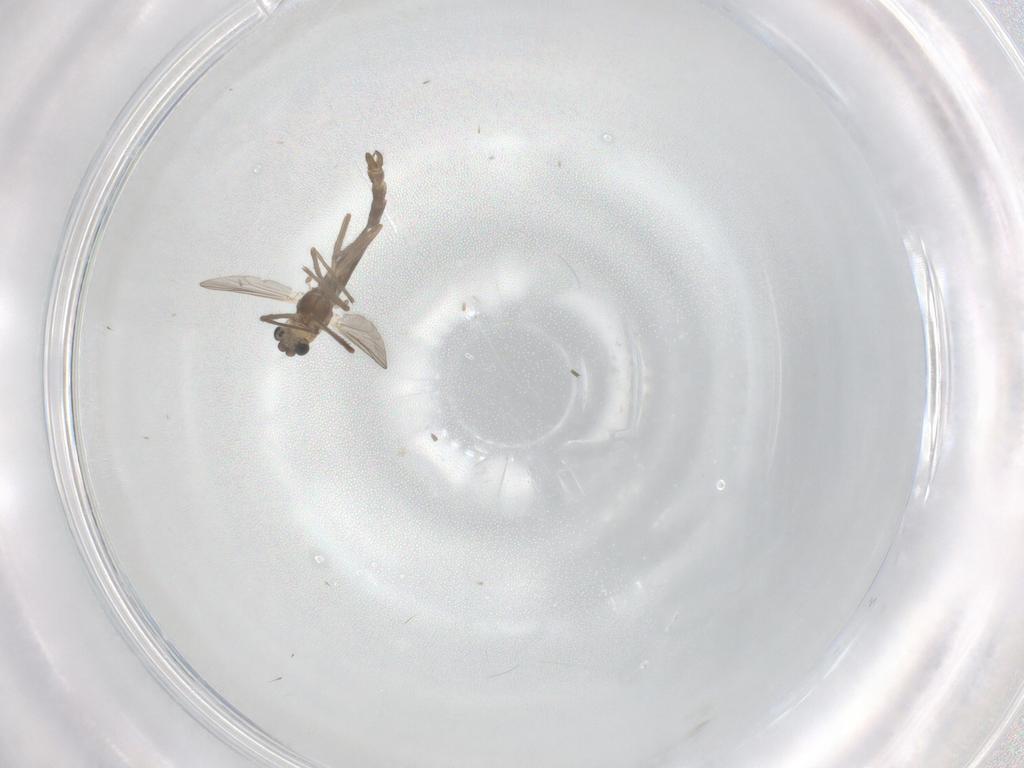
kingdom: Animalia
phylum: Arthropoda
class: Insecta
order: Diptera
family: Chironomidae
